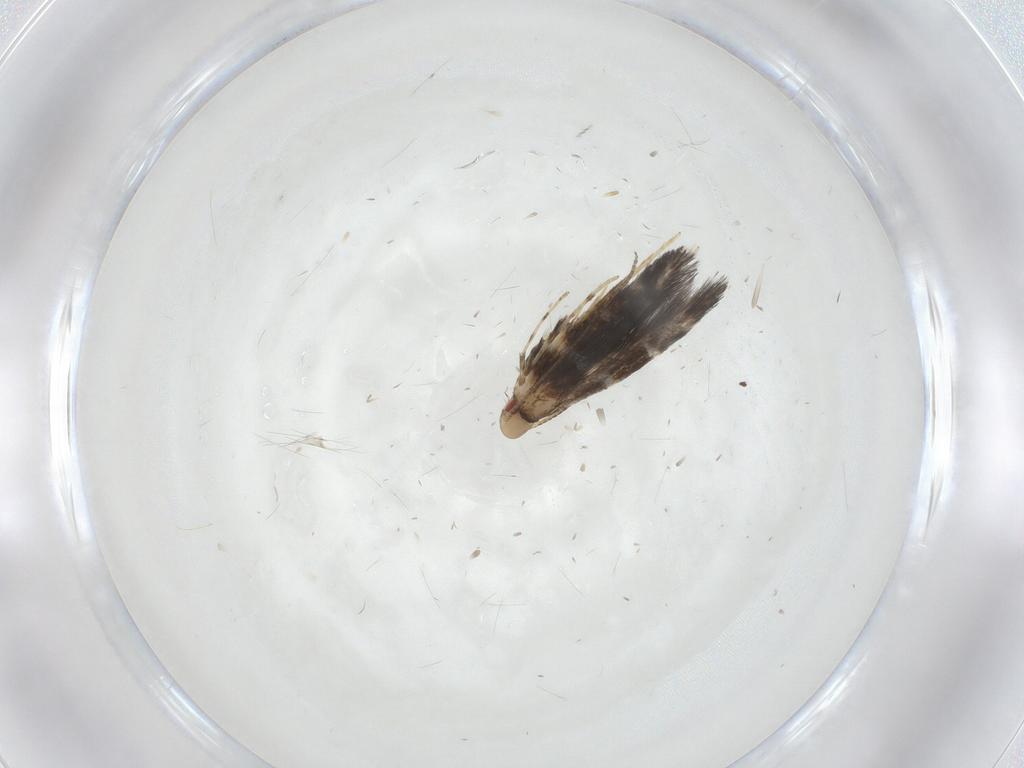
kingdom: Animalia
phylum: Arthropoda
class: Insecta
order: Lepidoptera
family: Gracillariidae
